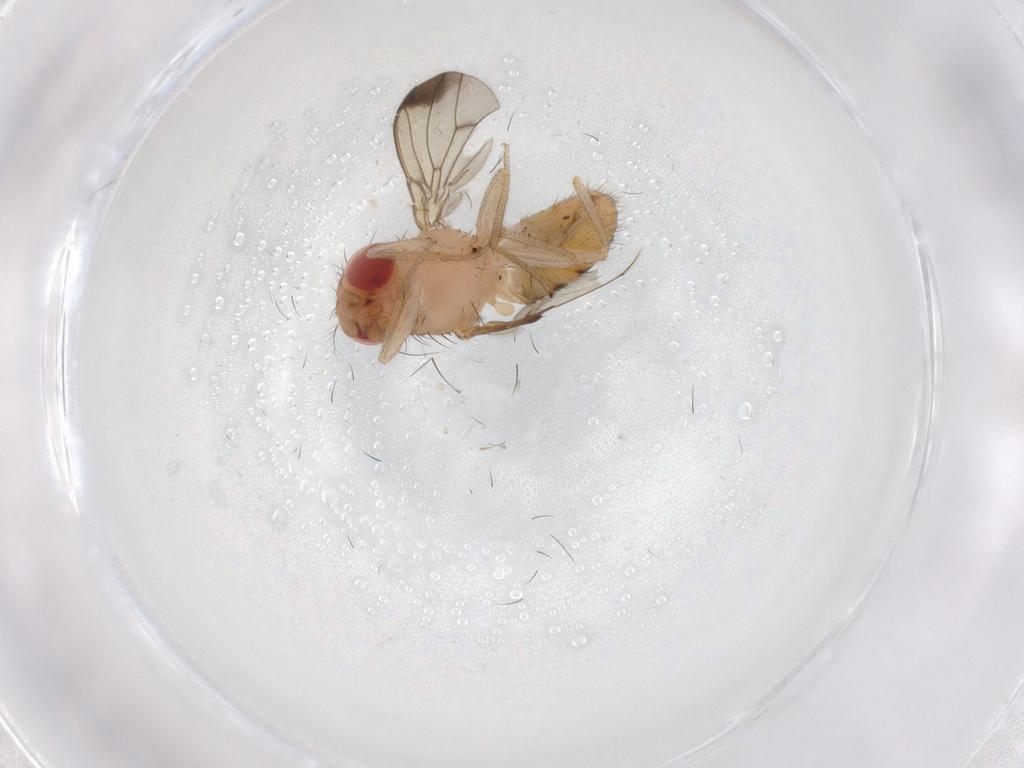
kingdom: Animalia
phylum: Arthropoda
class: Insecta
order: Diptera
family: Drosophilidae
